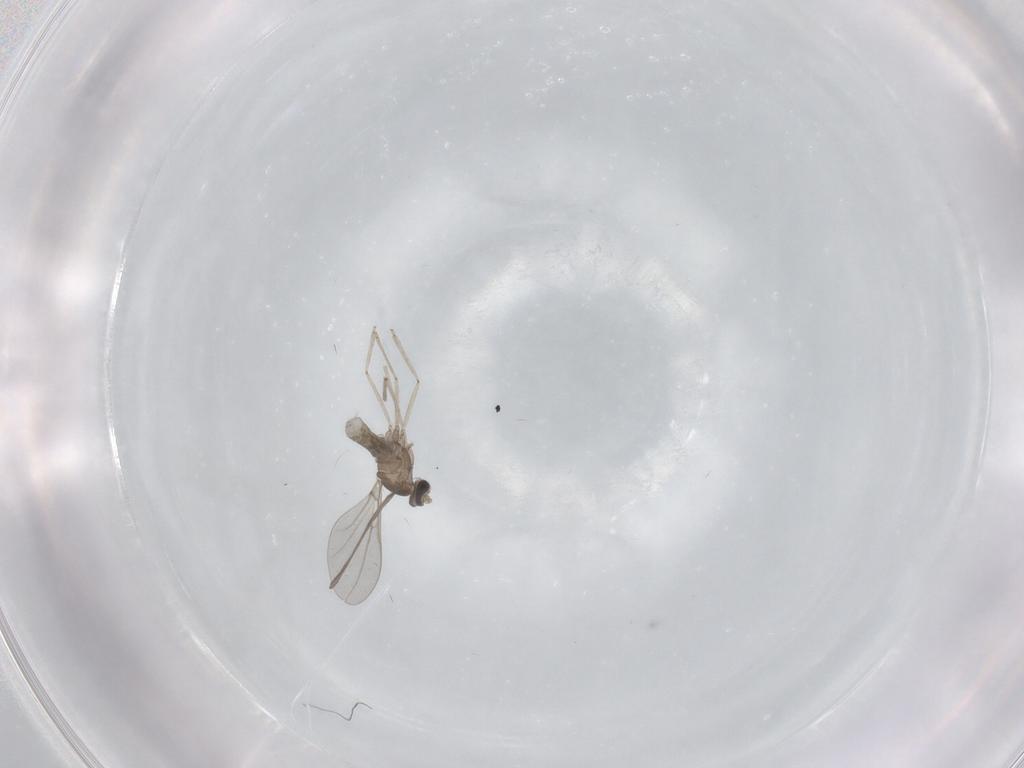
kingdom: Animalia
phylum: Arthropoda
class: Insecta
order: Diptera
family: Cecidomyiidae
